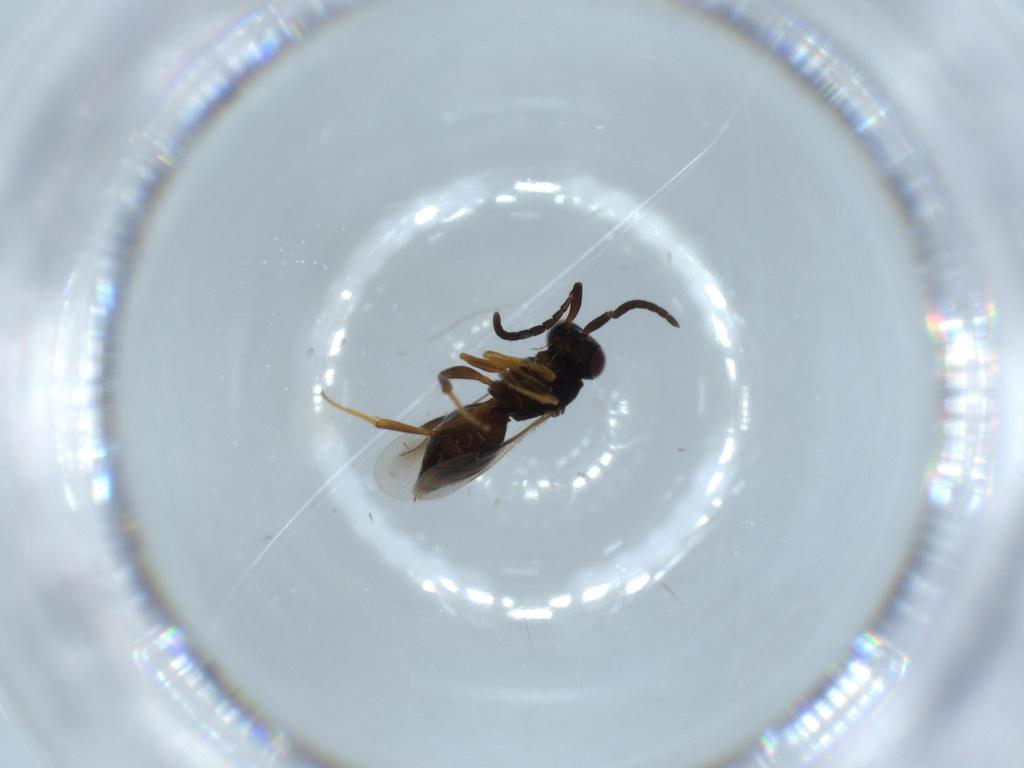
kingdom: Animalia
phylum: Arthropoda
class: Insecta
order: Hymenoptera
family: Megaspilidae
